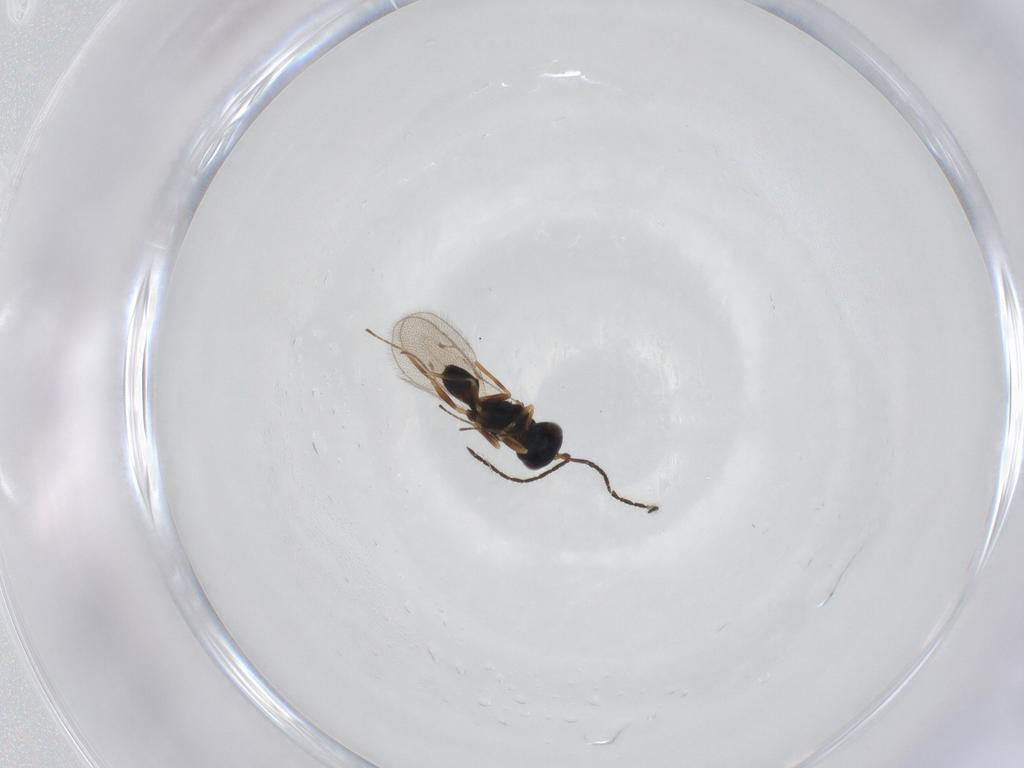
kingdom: Animalia
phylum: Arthropoda
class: Insecta
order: Hymenoptera
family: Pteromalidae
